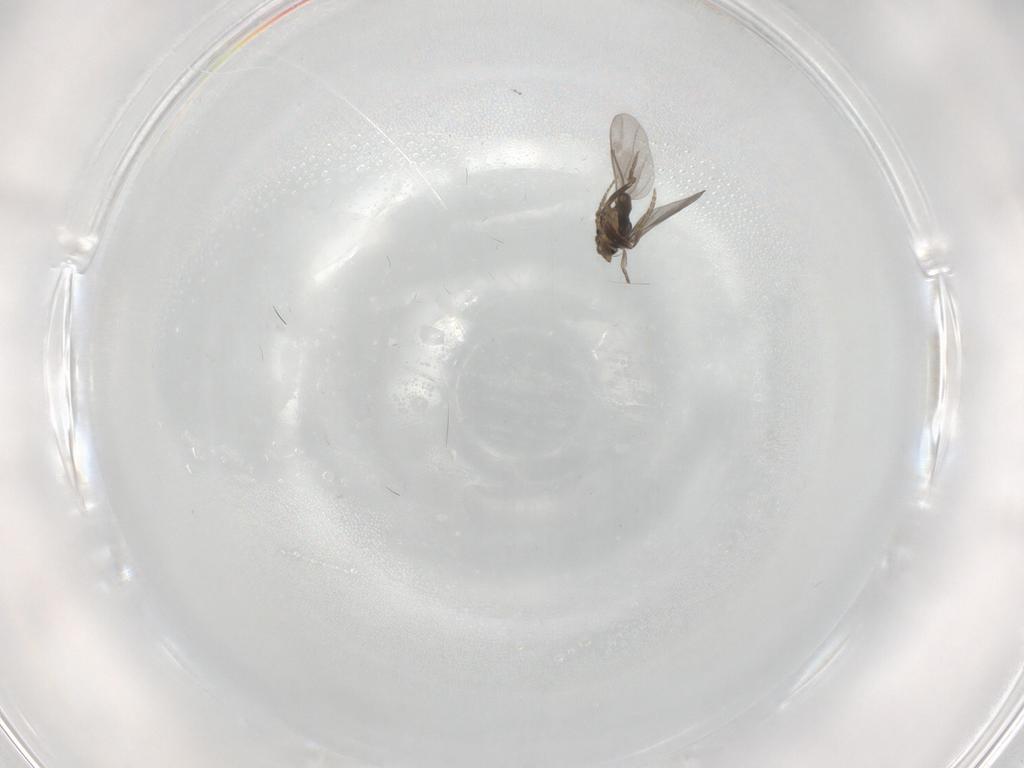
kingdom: Animalia
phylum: Arthropoda
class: Insecta
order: Diptera
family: Phoridae
